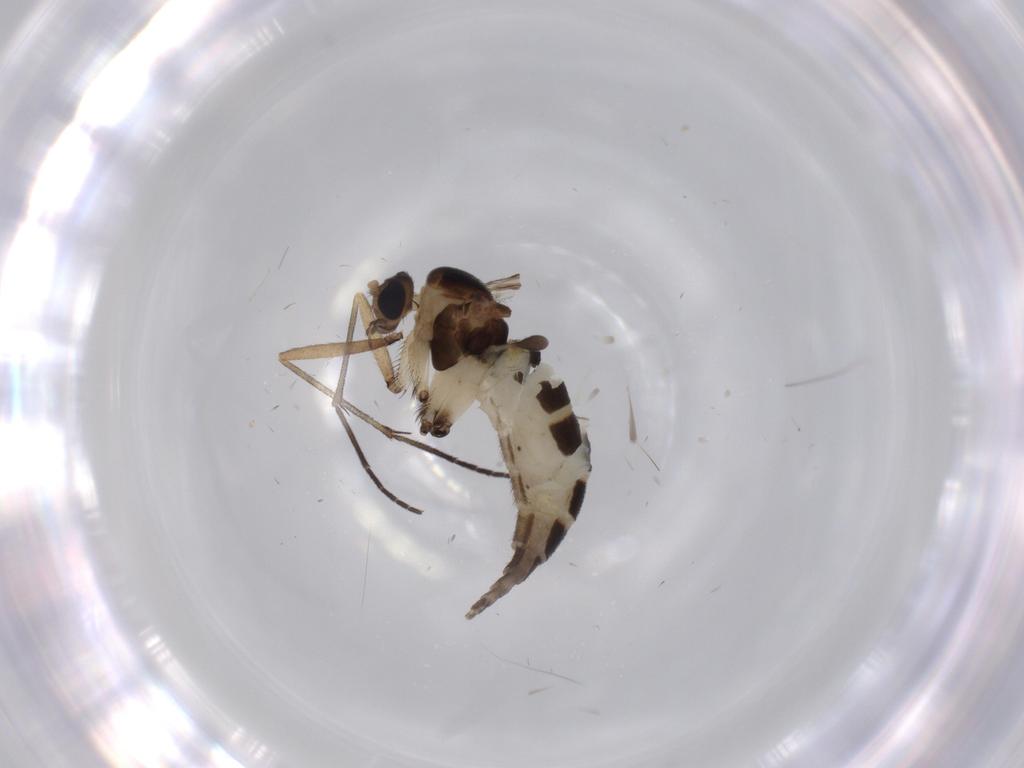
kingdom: Animalia
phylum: Arthropoda
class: Insecta
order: Diptera
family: Sciaridae
